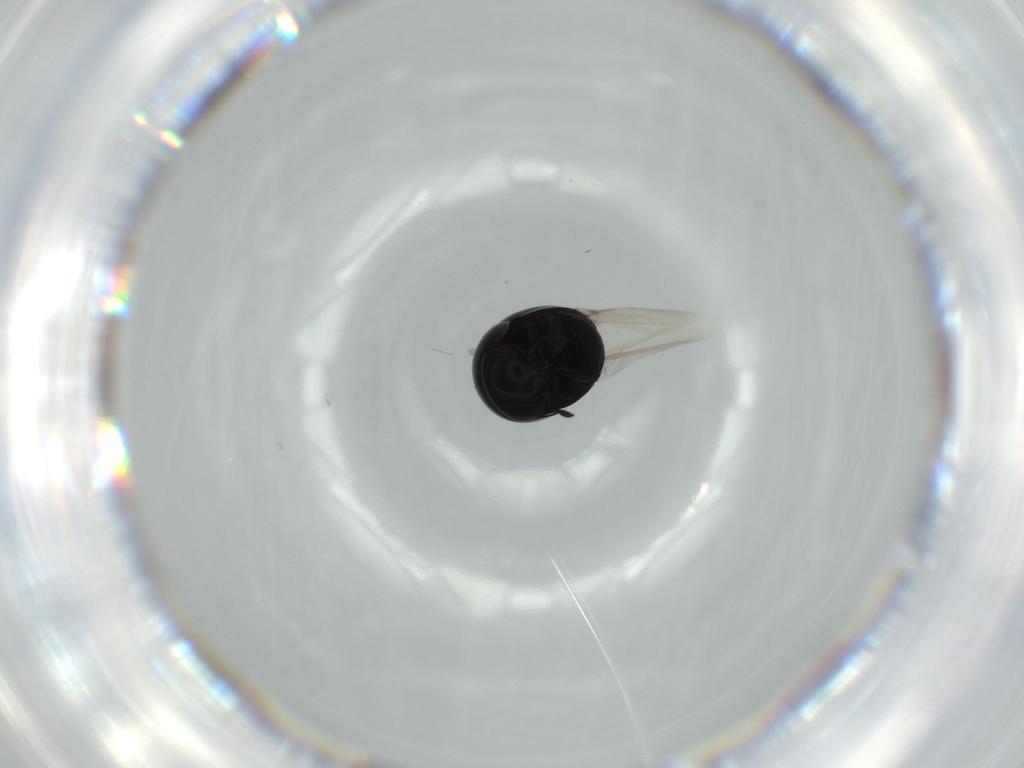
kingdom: Animalia
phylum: Arthropoda
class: Insecta
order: Coleoptera
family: Cybocephalidae
